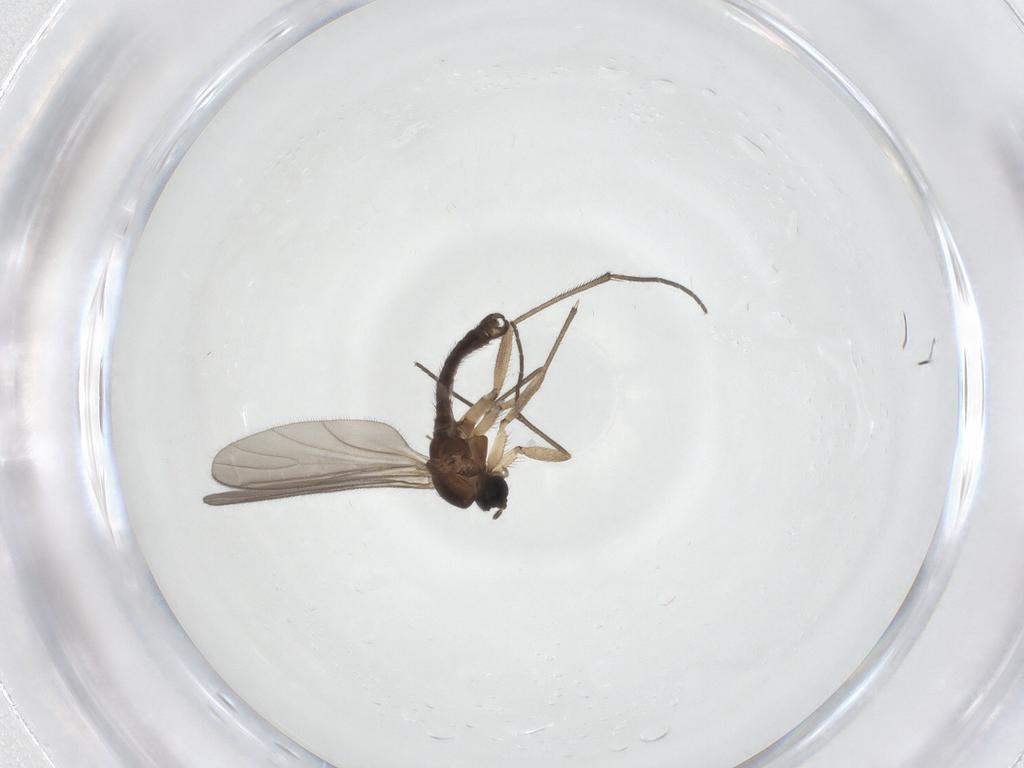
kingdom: Animalia
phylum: Arthropoda
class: Insecta
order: Diptera
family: Sciaridae
